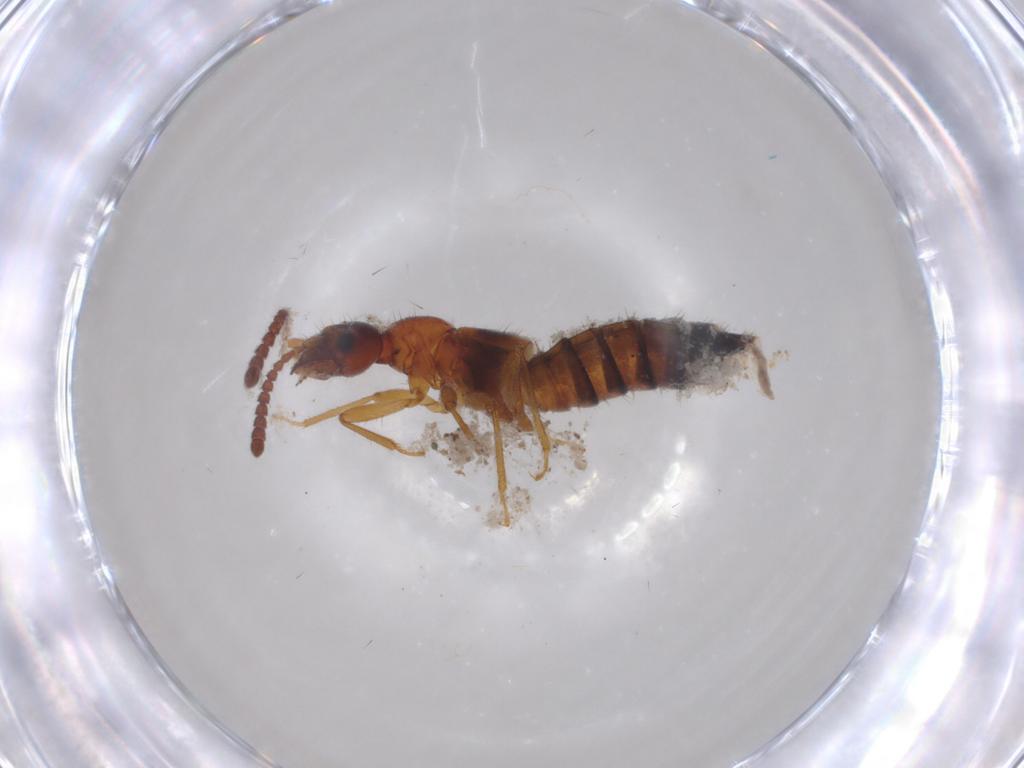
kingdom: Animalia
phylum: Arthropoda
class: Insecta
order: Coleoptera
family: Staphylinidae
